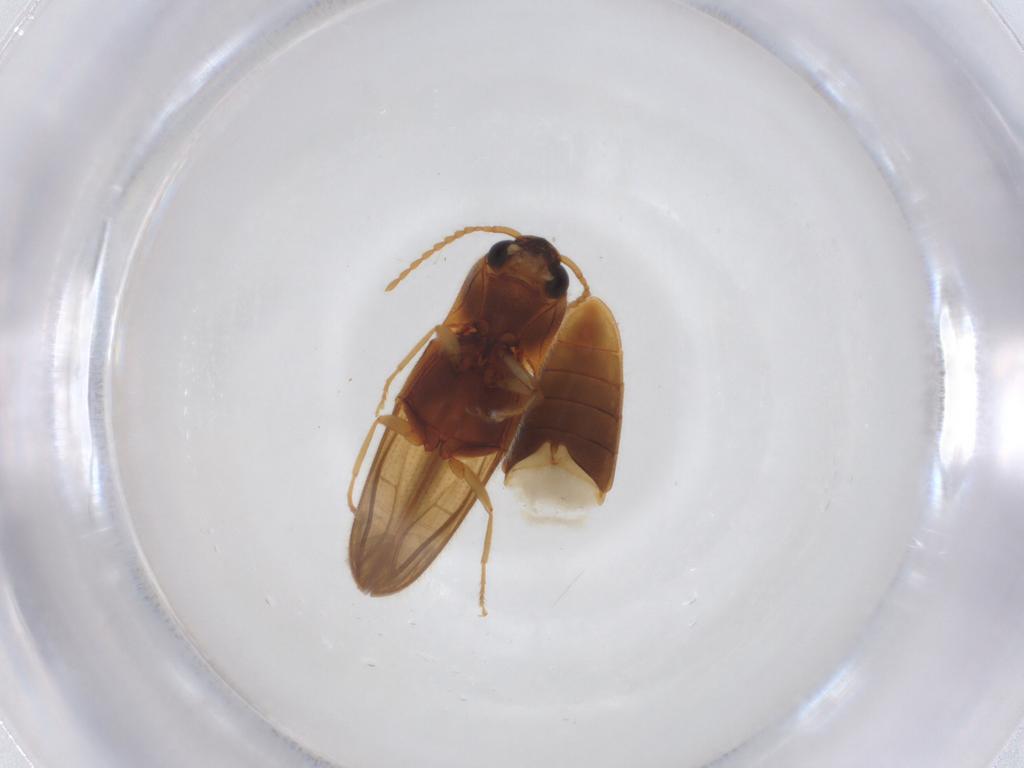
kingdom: Animalia
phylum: Arthropoda
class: Insecta
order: Coleoptera
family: Elateridae
